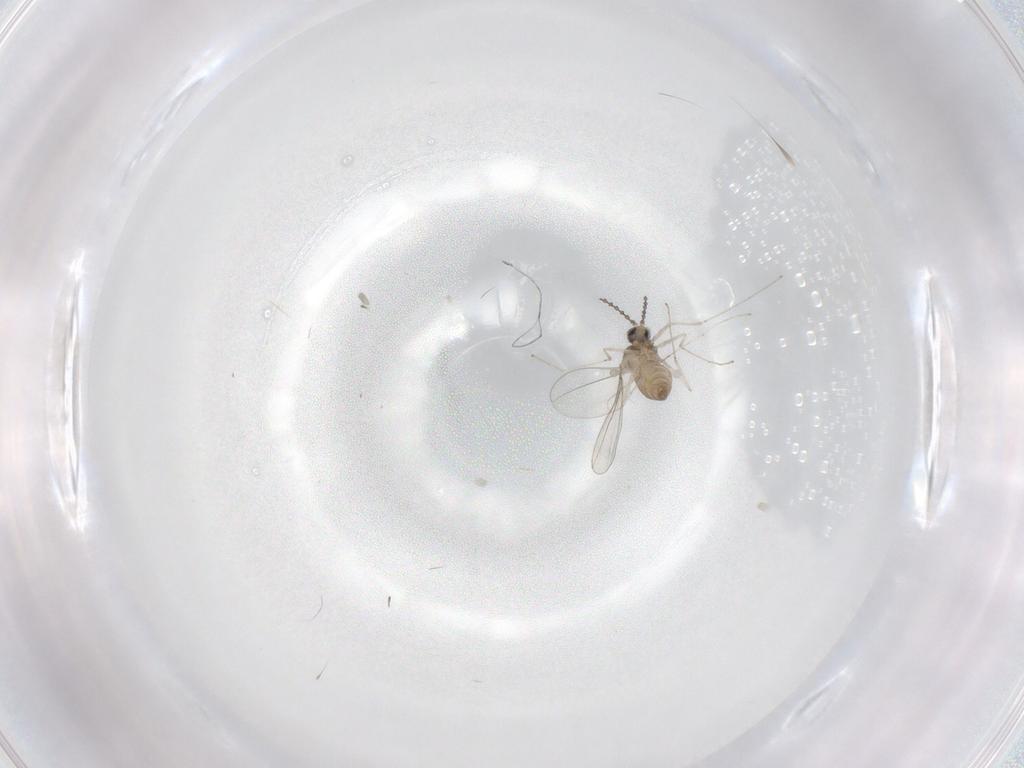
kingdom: Animalia
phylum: Arthropoda
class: Insecta
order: Diptera
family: Cecidomyiidae
